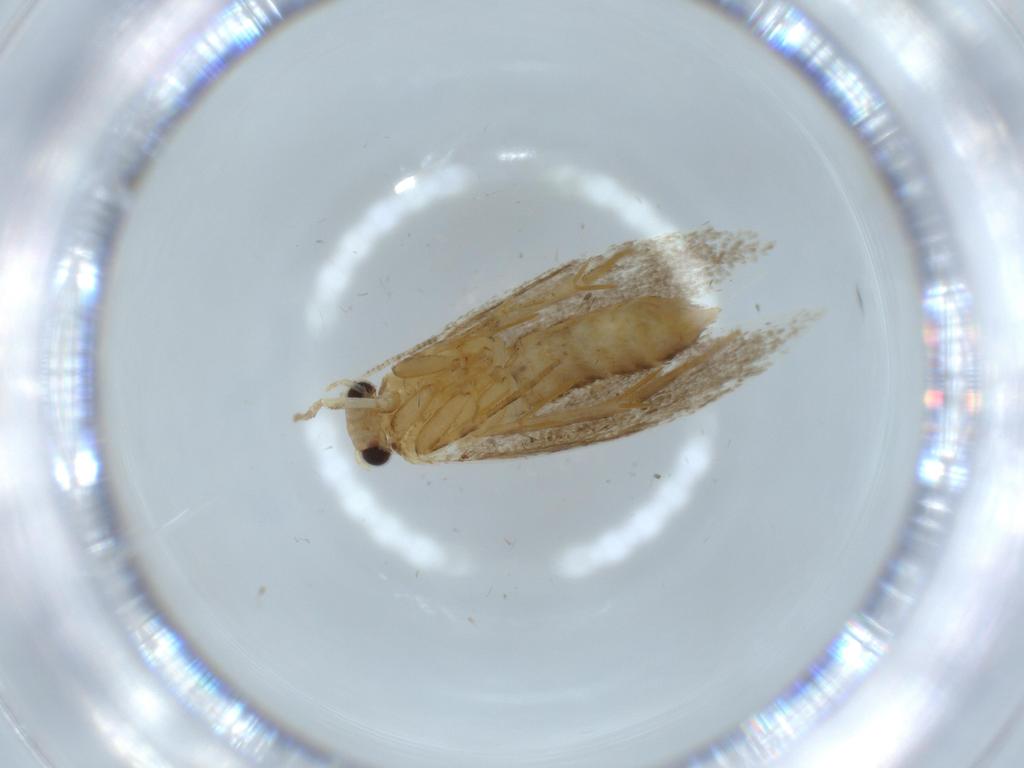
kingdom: Animalia
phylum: Arthropoda
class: Insecta
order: Lepidoptera
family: Tineidae
